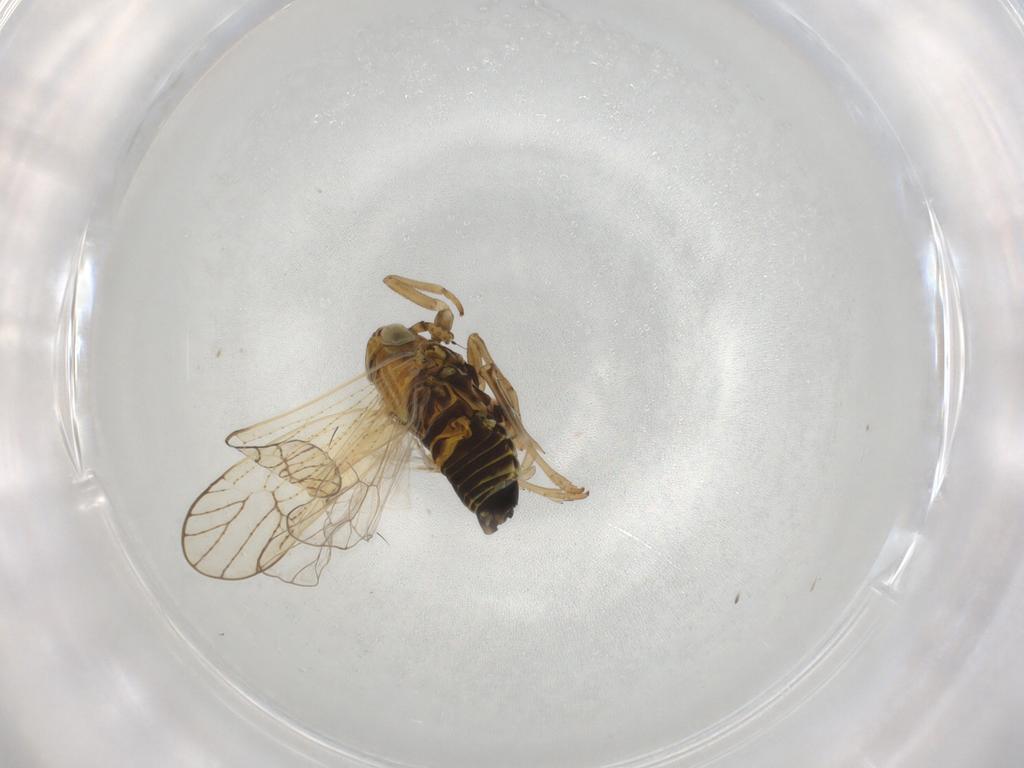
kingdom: Animalia
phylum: Arthropoda
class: Insecta
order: Hemiptera
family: Delphacidae
